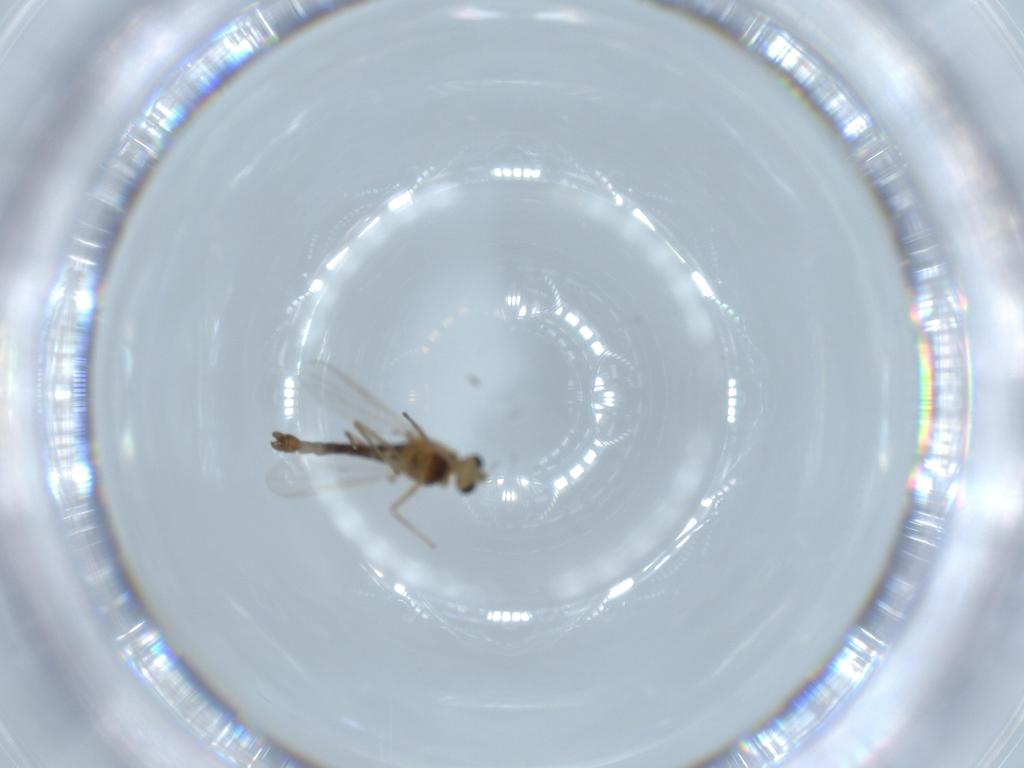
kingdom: Animalia
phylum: Arthropoda
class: Insecta
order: Diptera
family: Chironomidae
